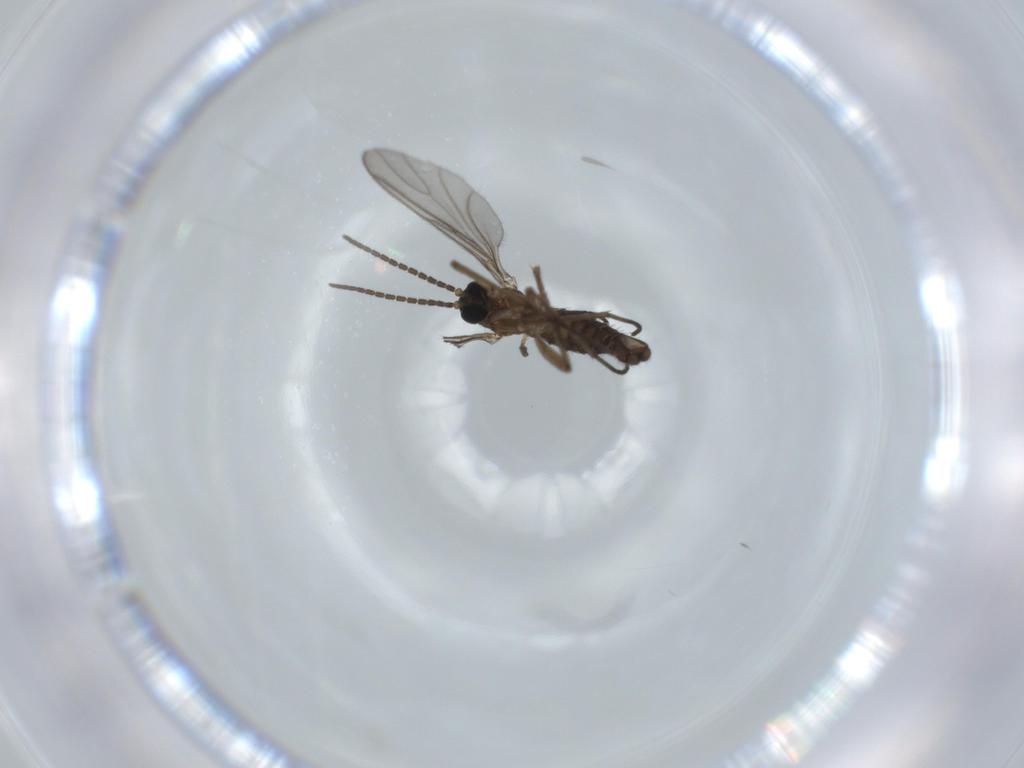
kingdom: Animalia
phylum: Arthropoda
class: Insecta
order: Diptera
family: Sciaridae
